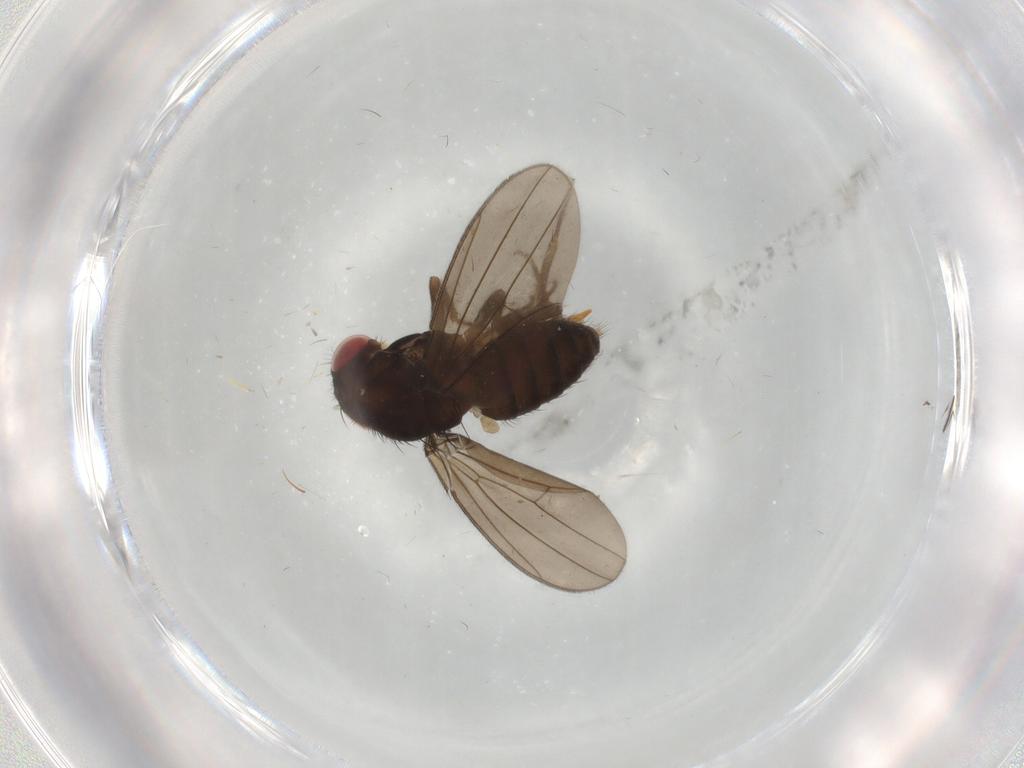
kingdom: Animalia
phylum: Arthropoda
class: Insecta
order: Diptera
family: Drosophilidae
